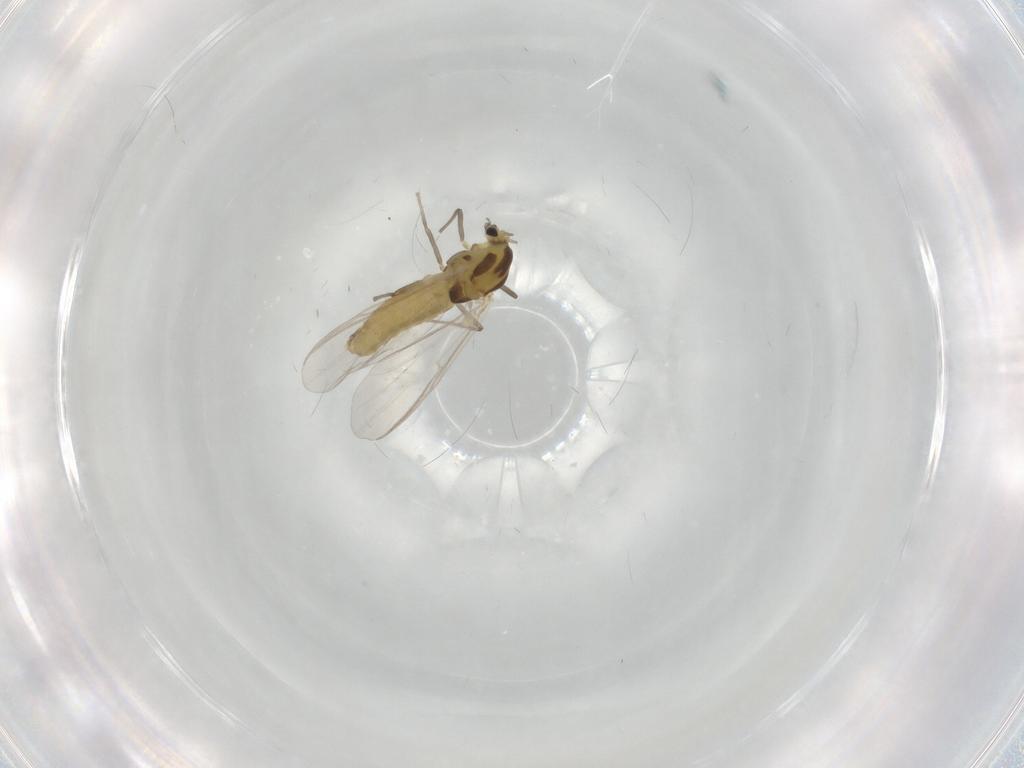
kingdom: Animalia
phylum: Arthropoda
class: Insecta
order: Diptera
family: Chironomidae
